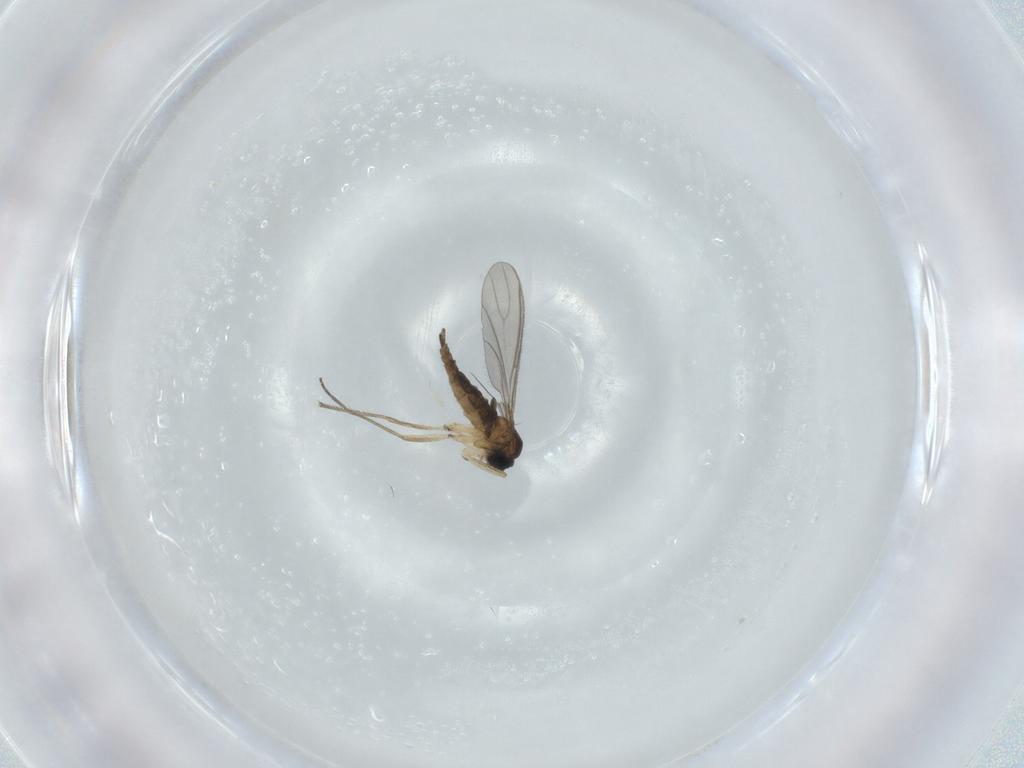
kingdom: Animalia
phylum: Arthropoda
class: Insecta
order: Diptera
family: Sciaridae
